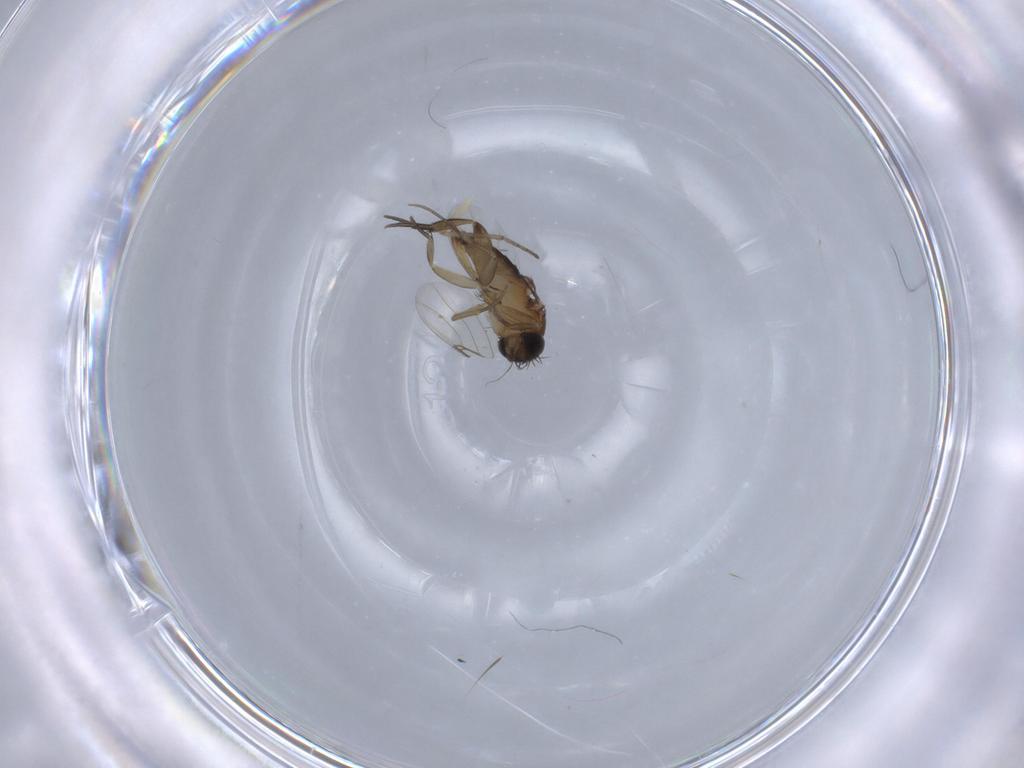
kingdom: Animalia
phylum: Arthropoda
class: Insecta
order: Diptera
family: Phoridae
